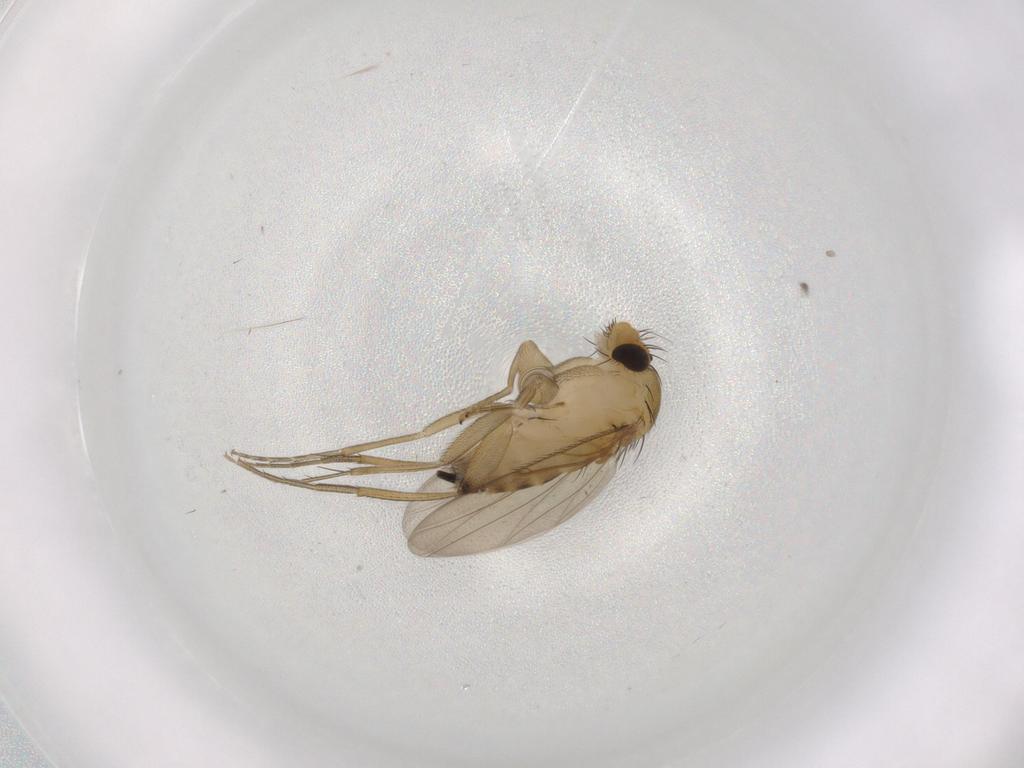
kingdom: Animalia
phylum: Arthropoda
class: Insecta
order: Diptera
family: Phoridae
